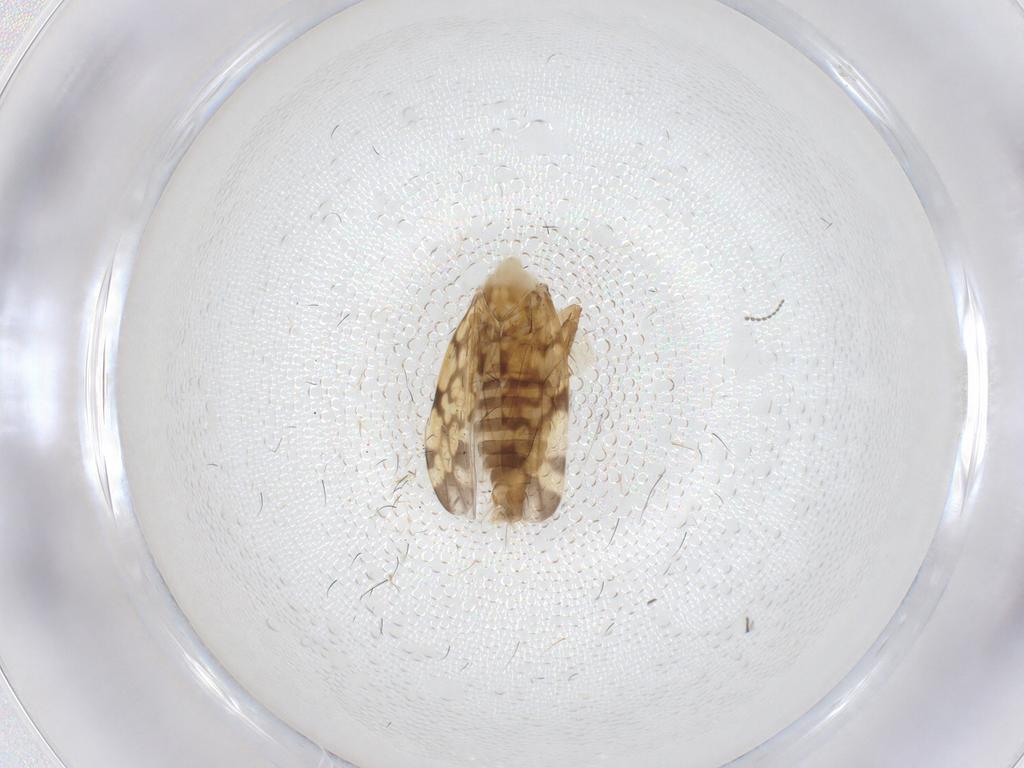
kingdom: Animalia
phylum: Arthropoda
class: Insecta
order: Hemiptera
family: Cicadellidae
